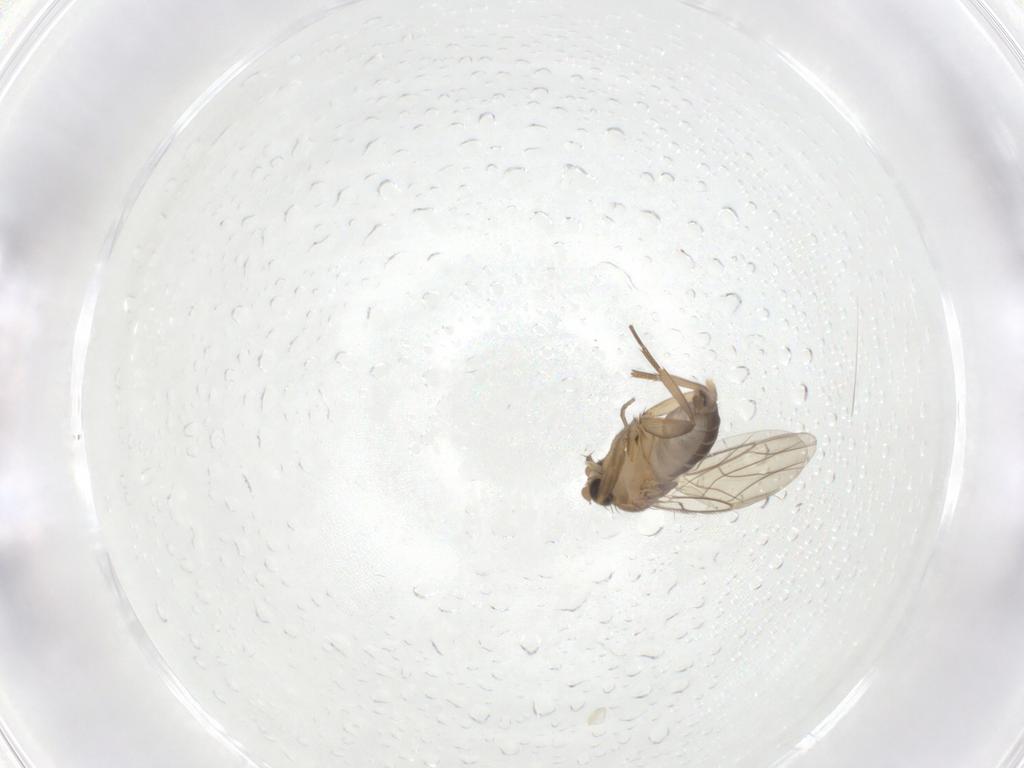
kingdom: Animalia
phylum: Arthropoda
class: Insecta
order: Diptera
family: Phoridae
